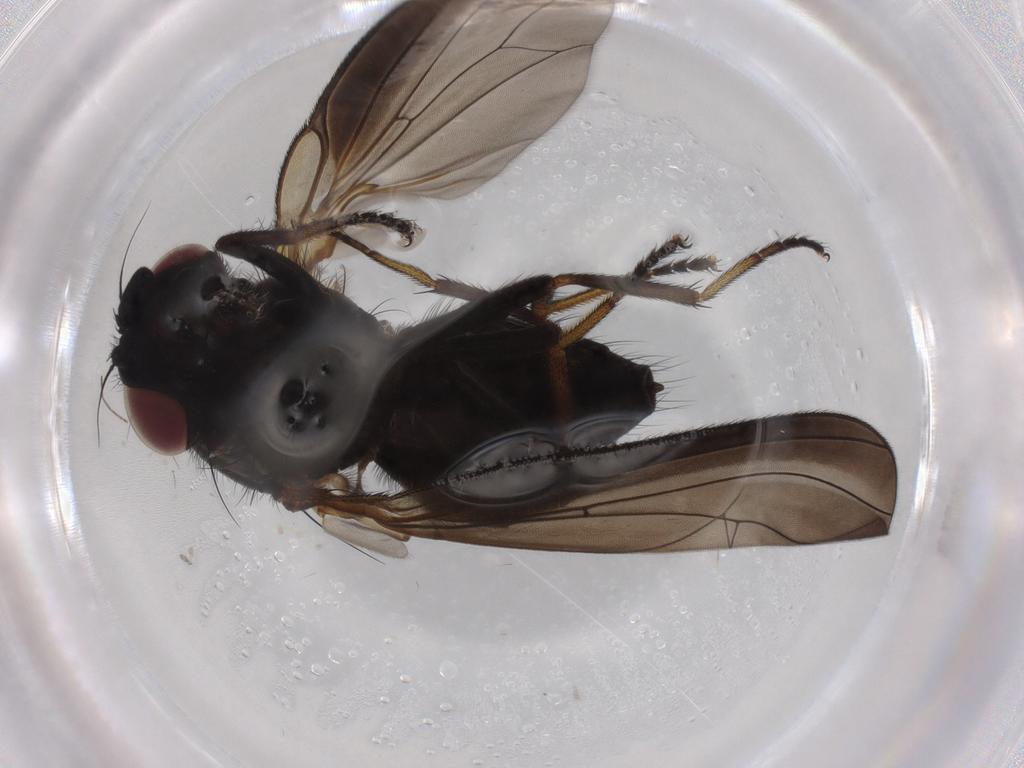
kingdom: Animalia
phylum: Arthropoda
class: Insecta
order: Diptera
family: Lonchaeidae
